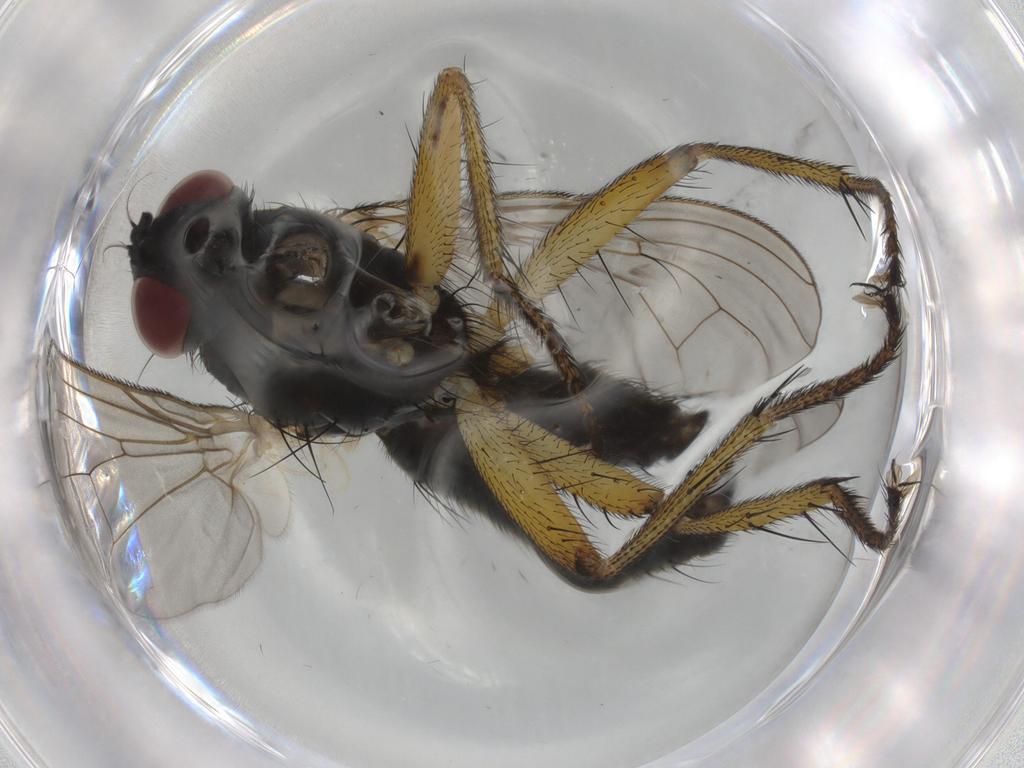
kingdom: Animalia
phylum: Arthropoda
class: Insecta
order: Diptera
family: Muscidae
